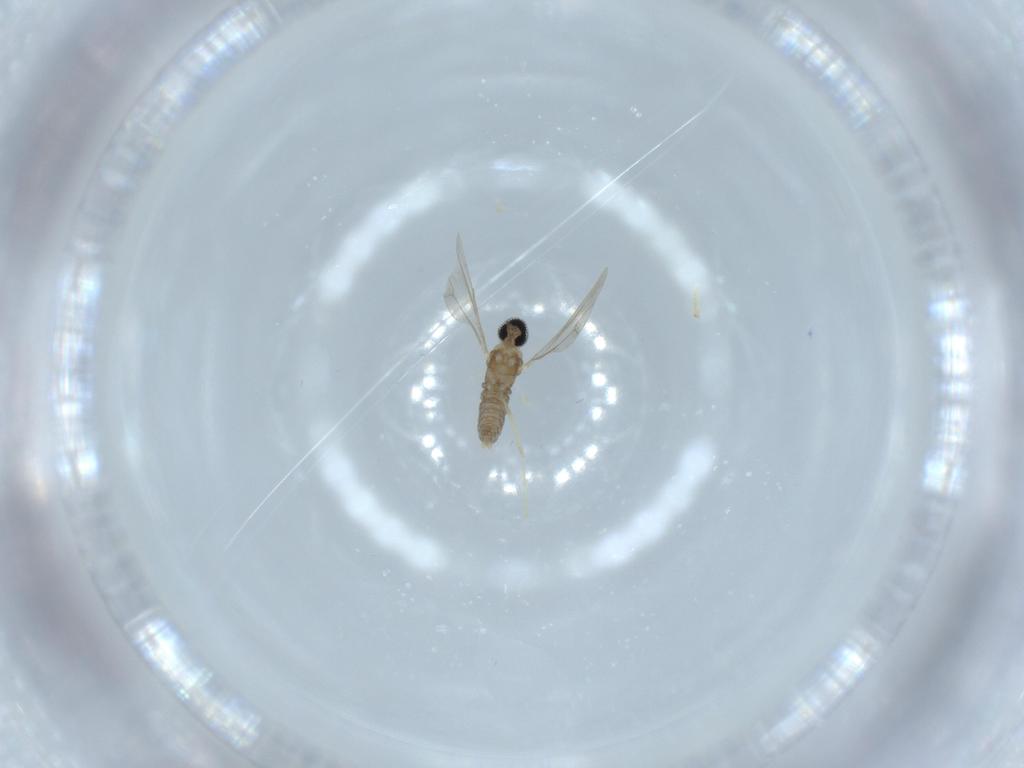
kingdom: Animalia
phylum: Arthropoda
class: Insecta
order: Diptera
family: Cecidomyiidae
